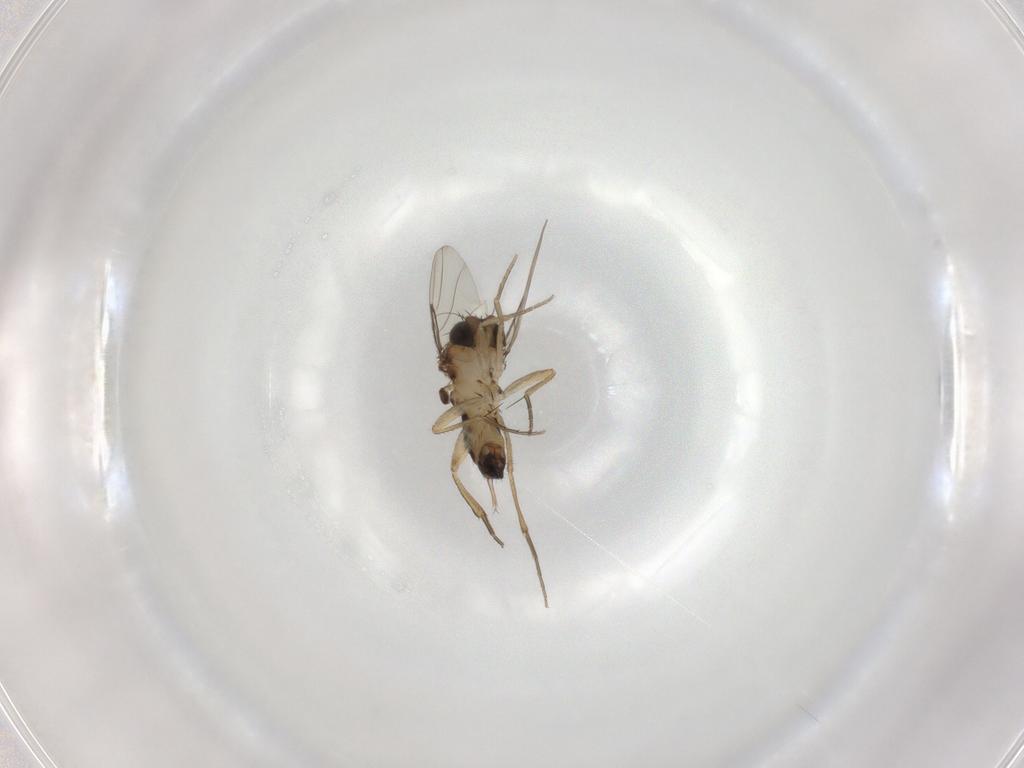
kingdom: Animalia
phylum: Arthropoda
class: Insecta
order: Diptera
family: Phoridae
